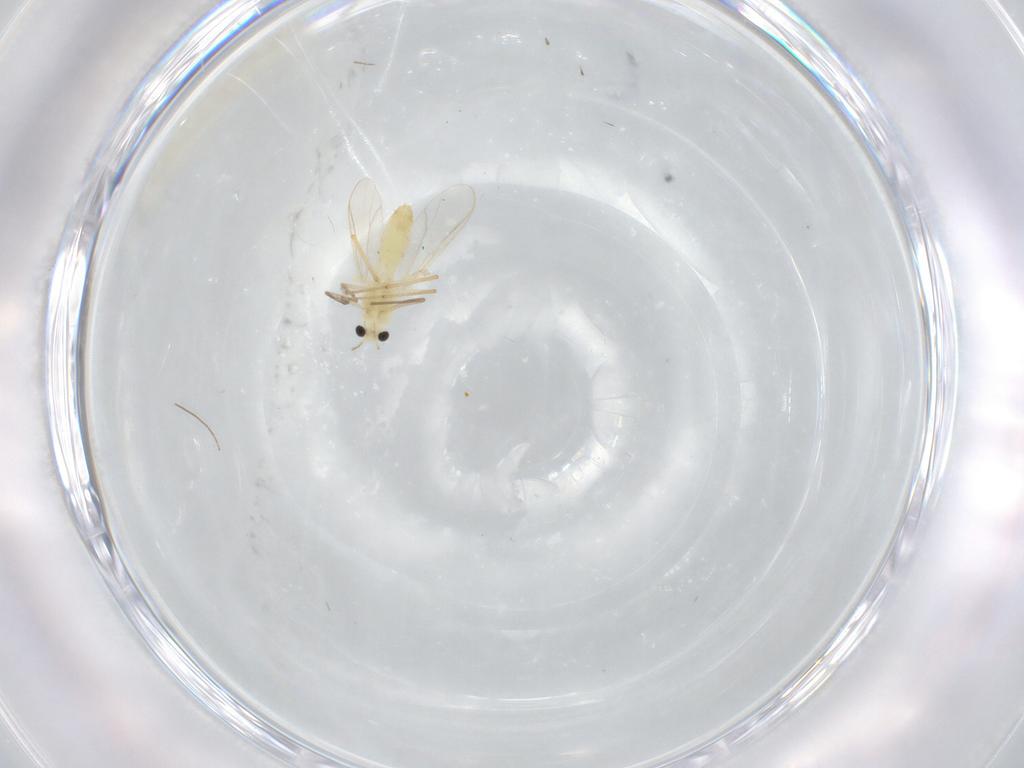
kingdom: Animalia
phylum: Arthropoda
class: Insecta
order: Diptera
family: Chironomidae
